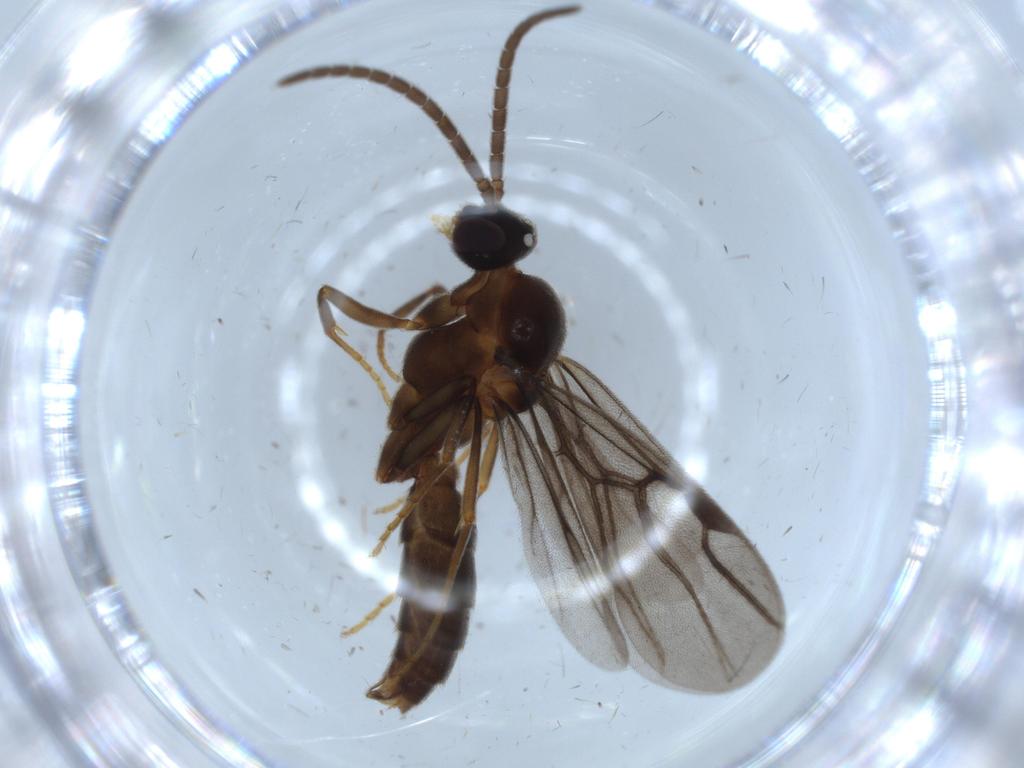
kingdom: Animalia
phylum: Arthropoda
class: Insecta
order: Hymenoptera
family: Formicidae
